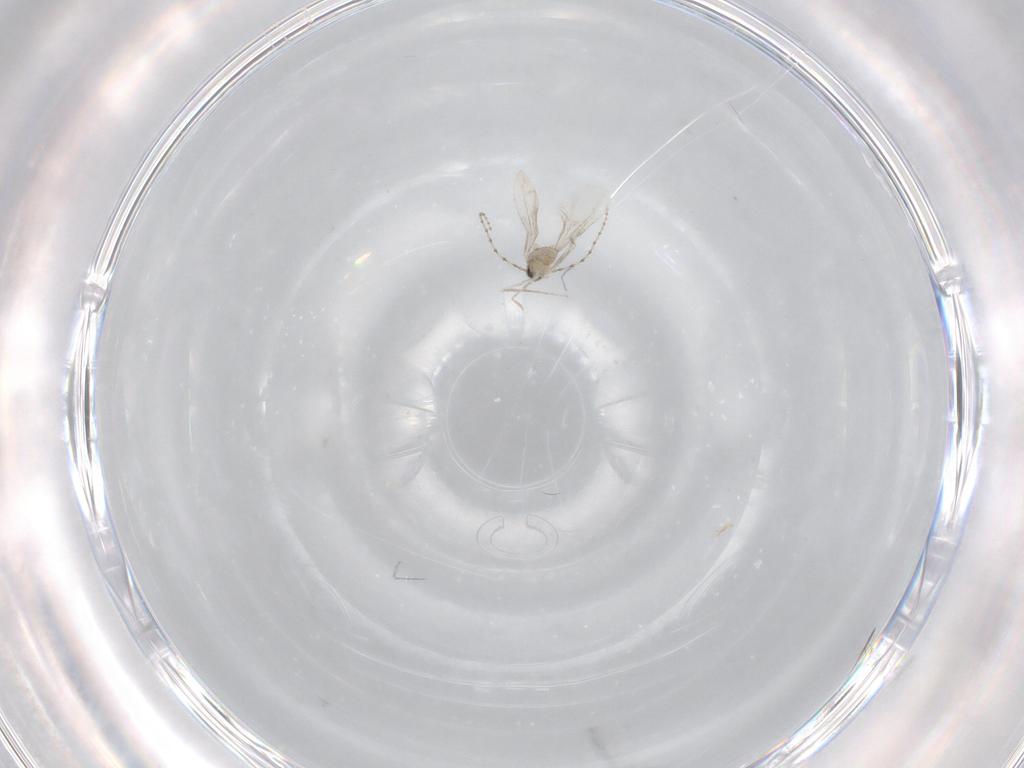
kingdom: Animalia
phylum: Arthropoda
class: Insecta
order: Diptera
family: Cecidomyiidae
